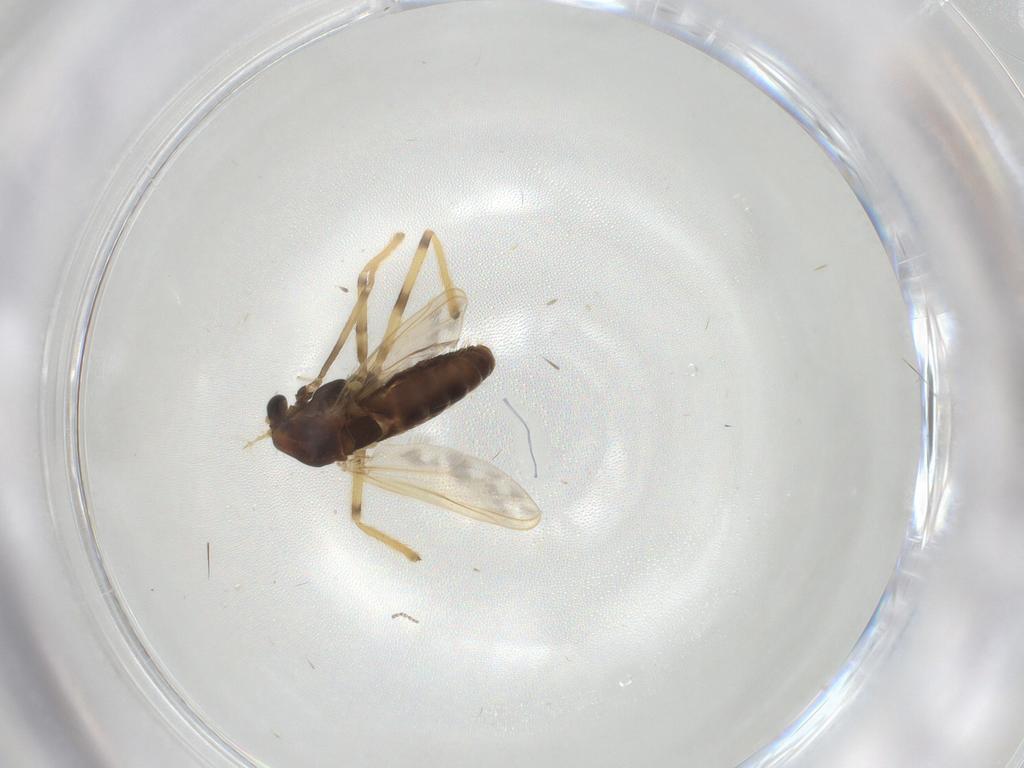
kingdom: Animalia
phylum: Arthropoda
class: Insecta
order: Diptera
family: Chironomidae
